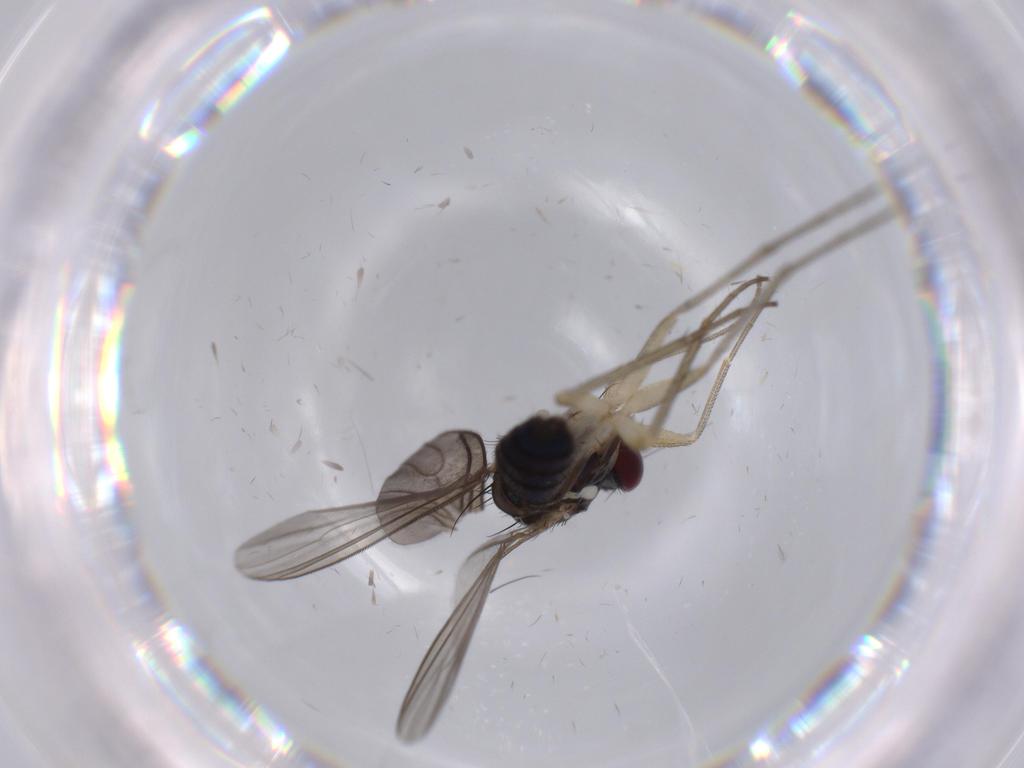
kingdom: Animalia
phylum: Arthropoda
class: Insecta
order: Diptera
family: Dolichopodidae
